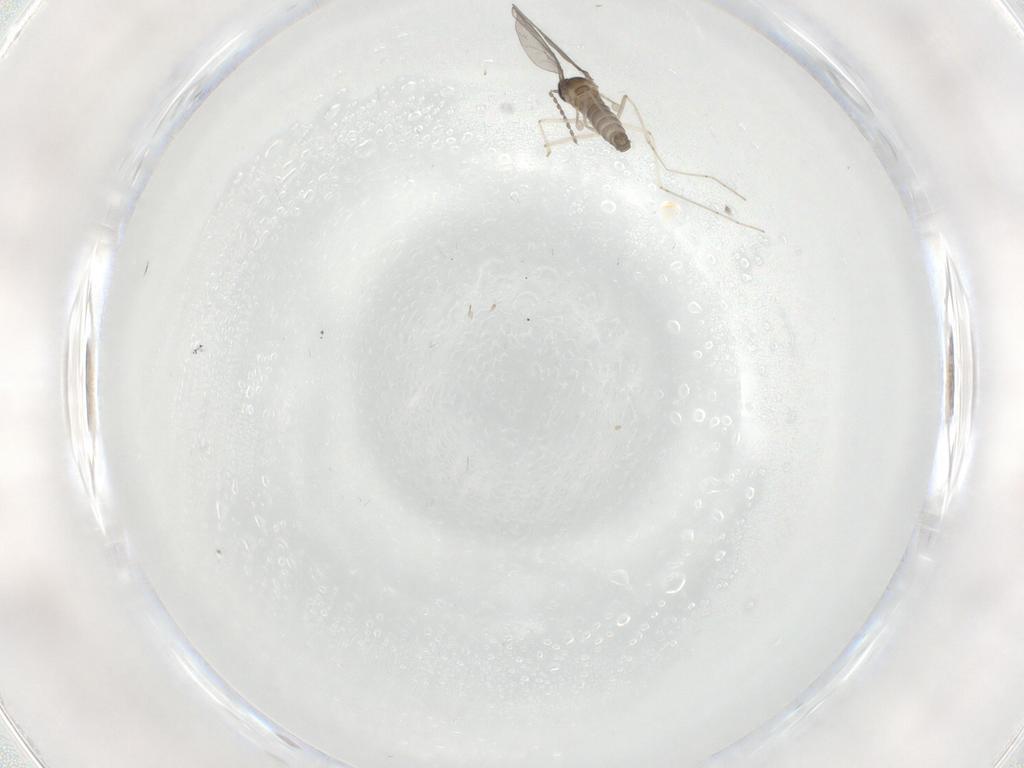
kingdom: Animalia
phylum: Arthropoda
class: Insecta
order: Diptera
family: Cecidomyiidae
